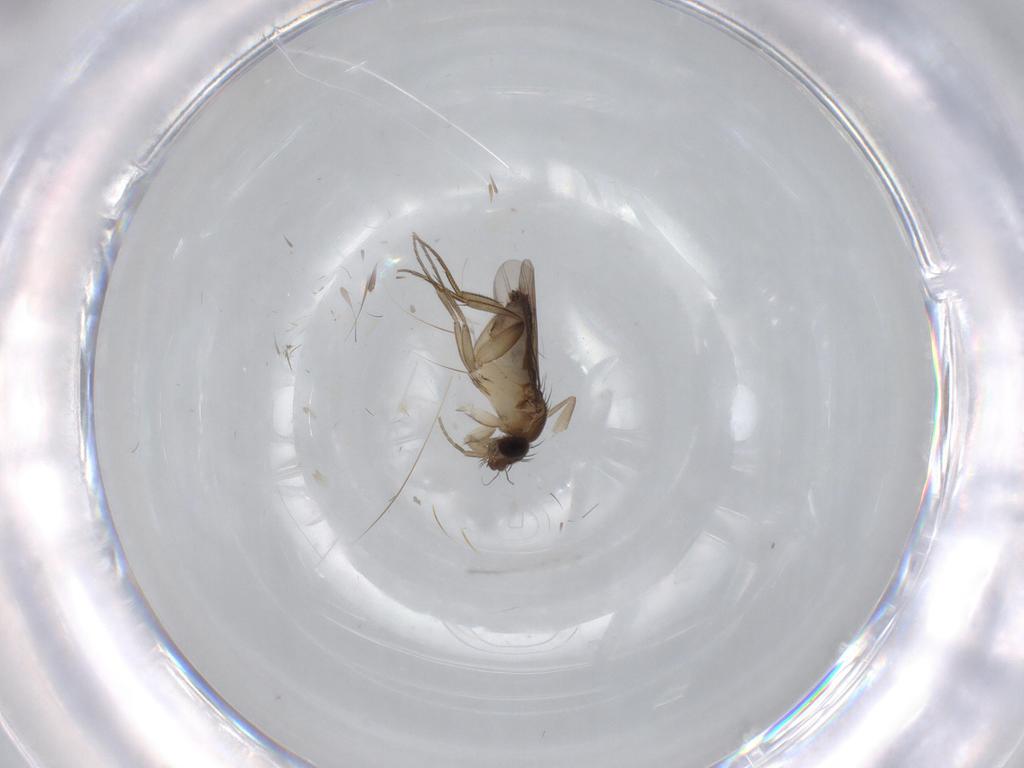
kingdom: Animalia
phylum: Arthropoda
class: Insecta
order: Diptera
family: Phoridae
